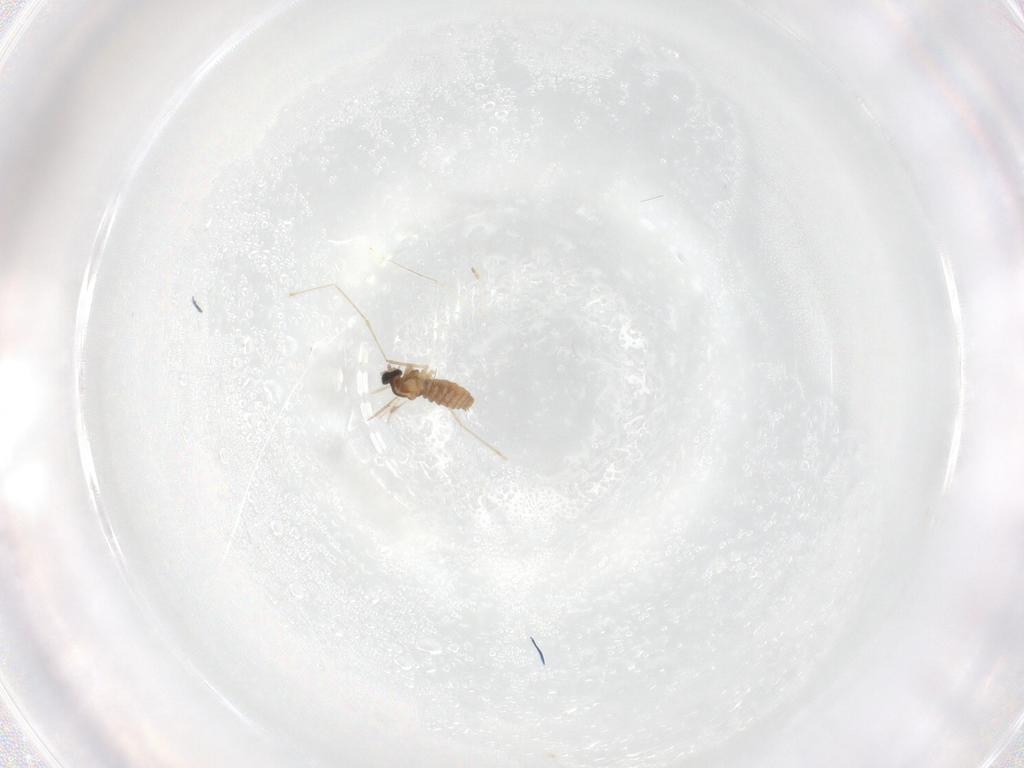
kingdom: Animalia
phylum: Arthropoda
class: Insecta
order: Diptera
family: Cecidomyiidae
